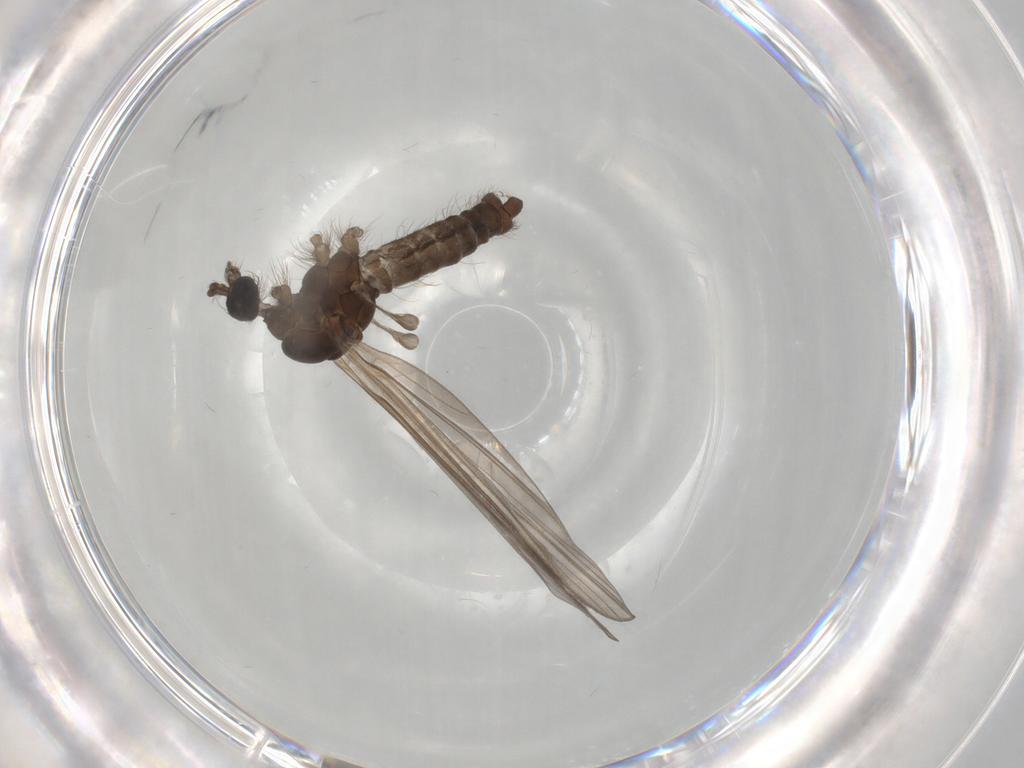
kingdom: Animalia
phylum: Arthropoda
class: Insecta
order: Diptera
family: Limoniidae
